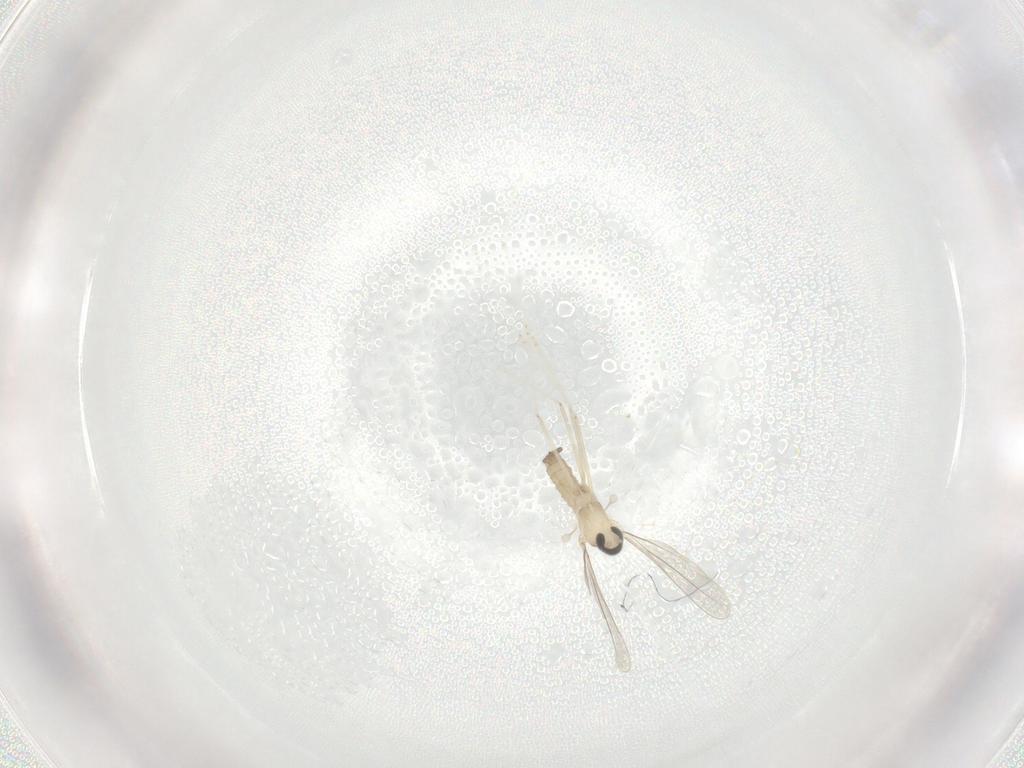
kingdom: Animalia
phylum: Arthropoda
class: Insecta
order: Diptera
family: Cecidomyiidae
